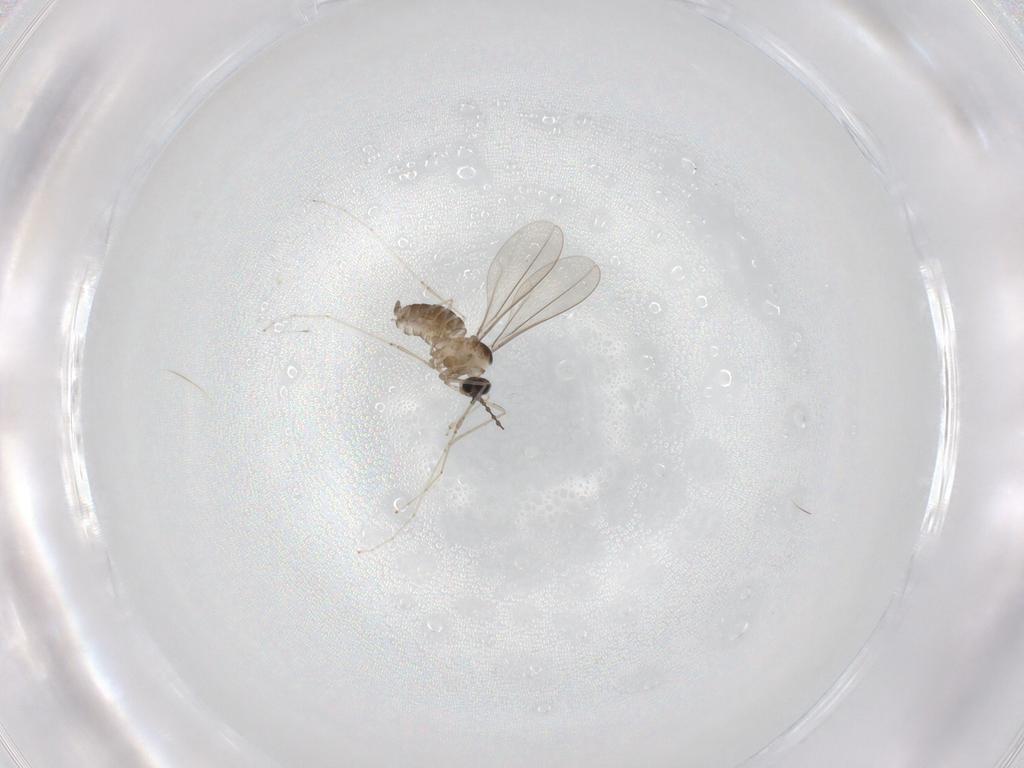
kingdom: Animalia
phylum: Arthropoda
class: Insecta
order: Diptera
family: Cecidomyiidae
